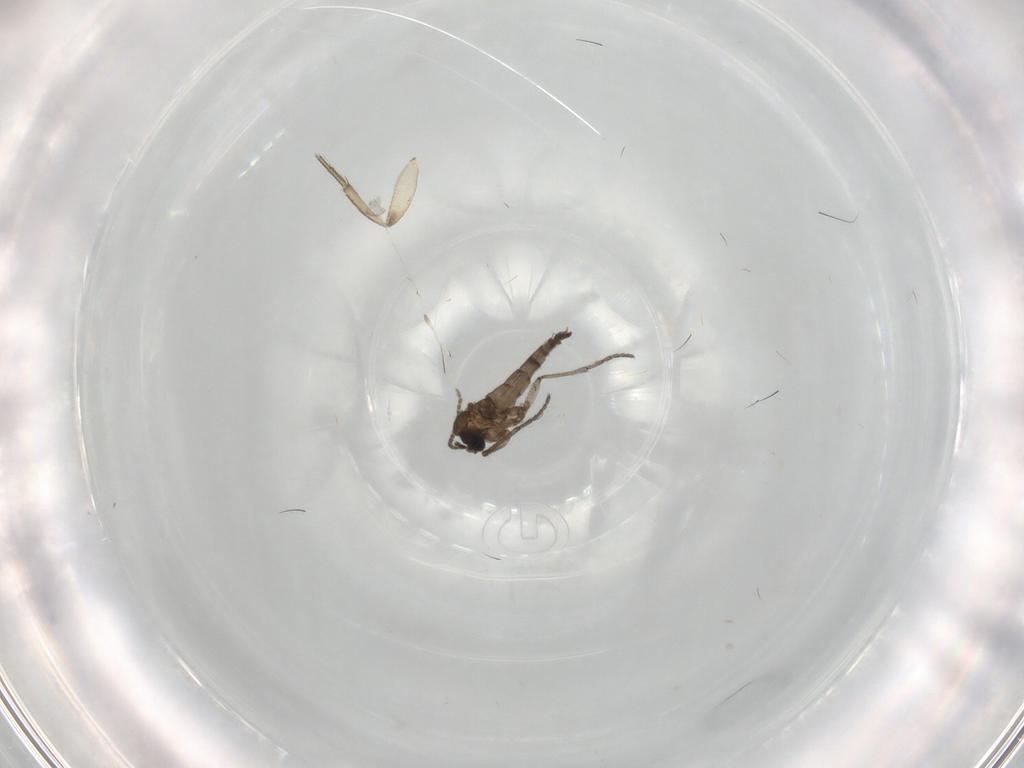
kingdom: Animalia
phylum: Arthropoda
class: Insecta
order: Diptera
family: Sciaridae
